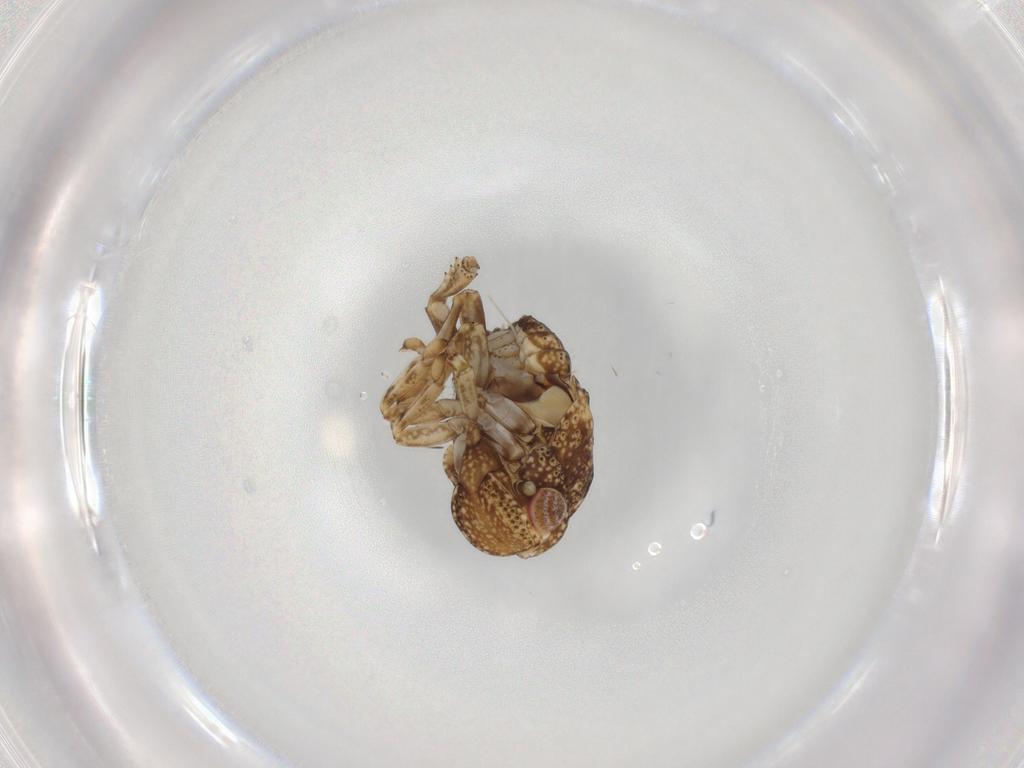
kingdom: Animalia
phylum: Arthropoda
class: Insecta
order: Hemiptera
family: Acanaloniidae
